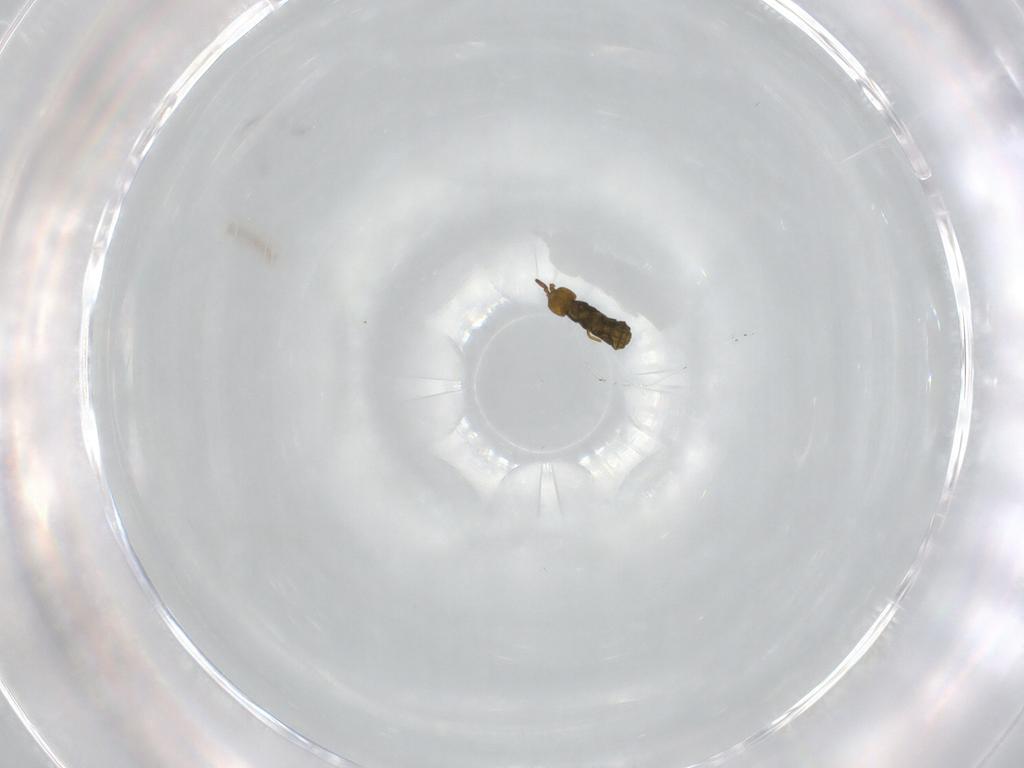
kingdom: Animalia
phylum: Arthropoda
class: Collembola
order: Entomobryomorpha
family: Isotomidae
